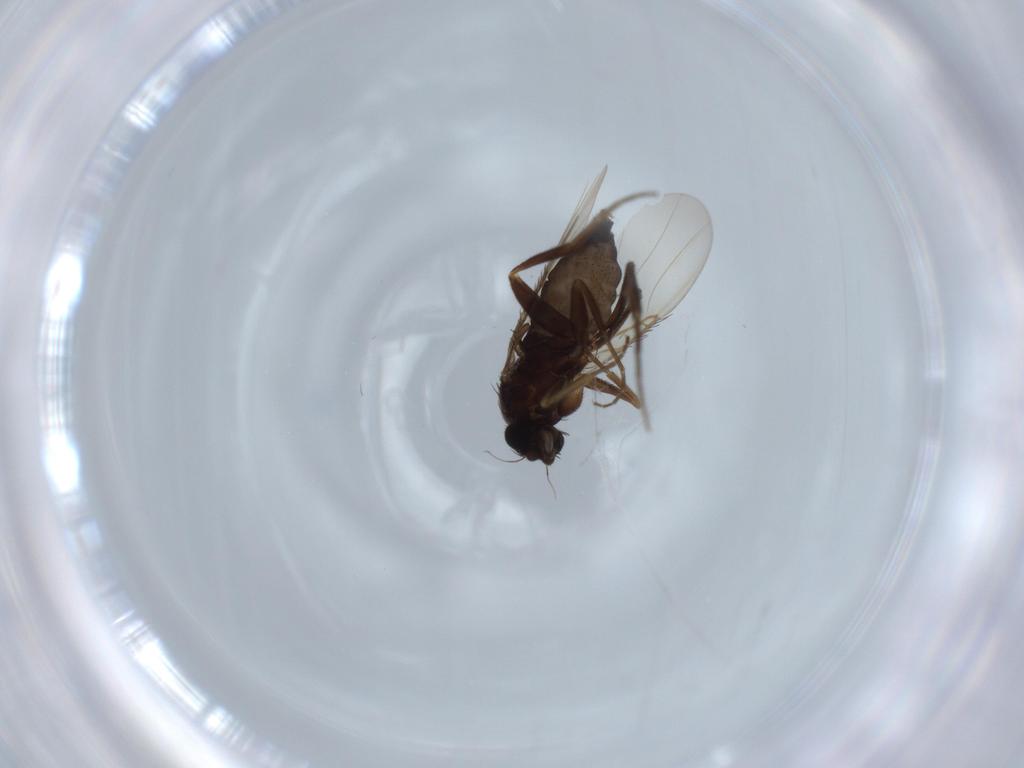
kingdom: Animalia
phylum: Arthropoda
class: Insecta
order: Diptera
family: Phoridae
